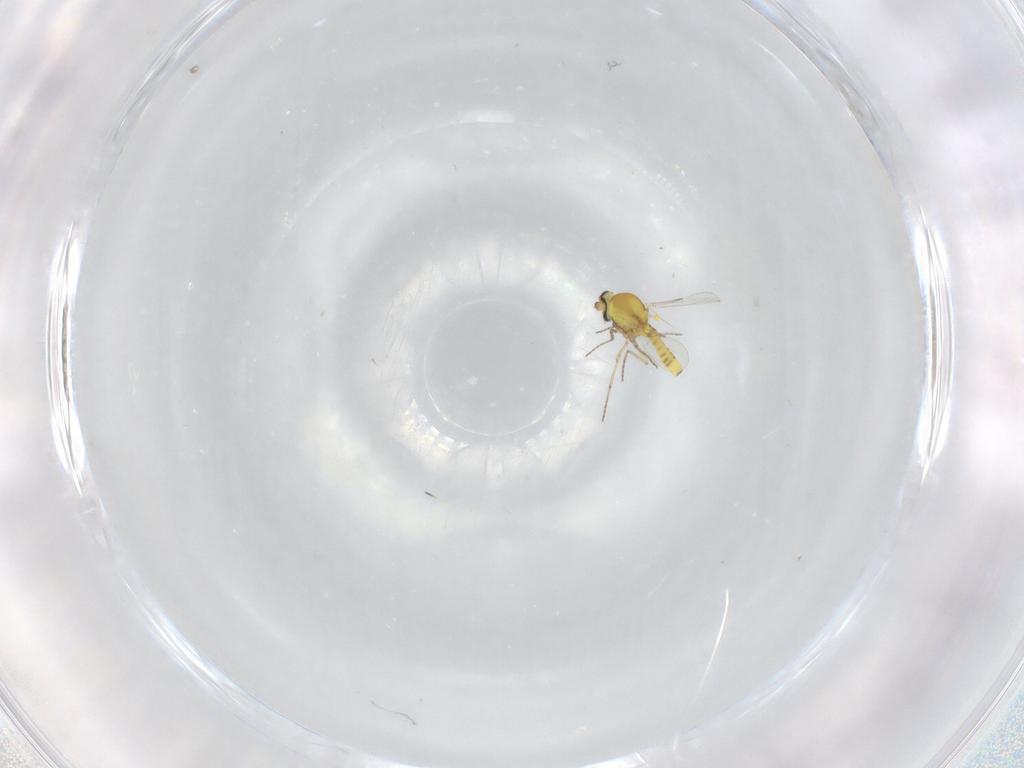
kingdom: Animalia
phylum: Arthropoda
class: Insecta
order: Diptera
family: Ceratopogonidae
